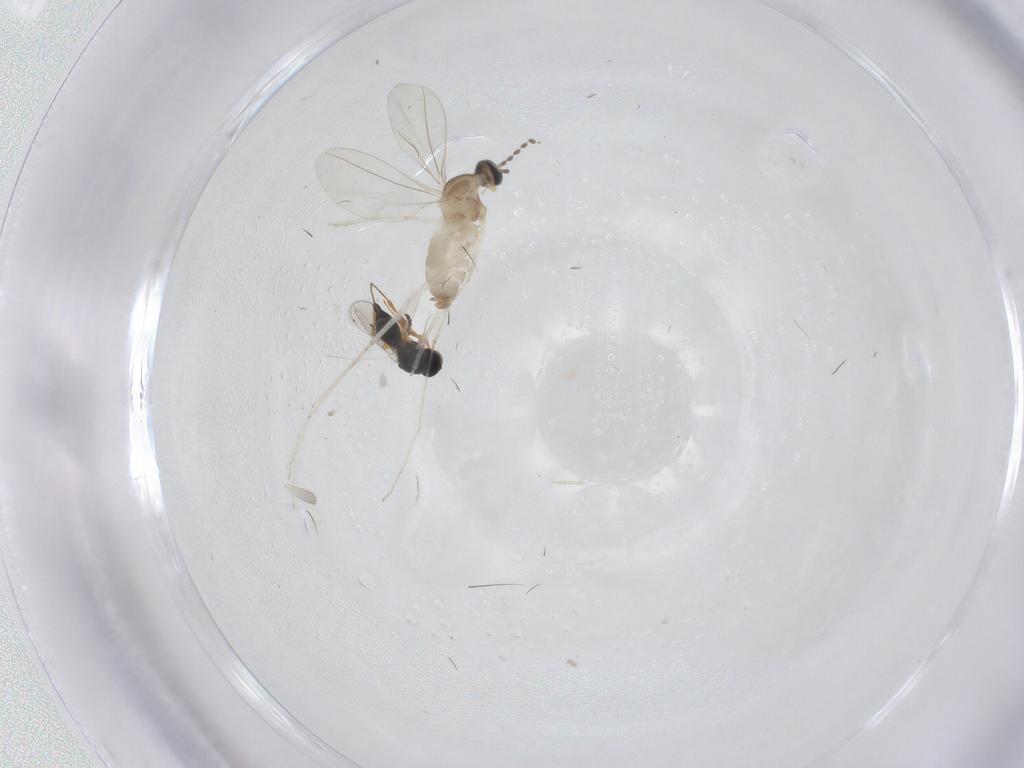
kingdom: Animalia
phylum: Arthropoda
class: Insecta
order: Diptera
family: Cecidomyiidae
